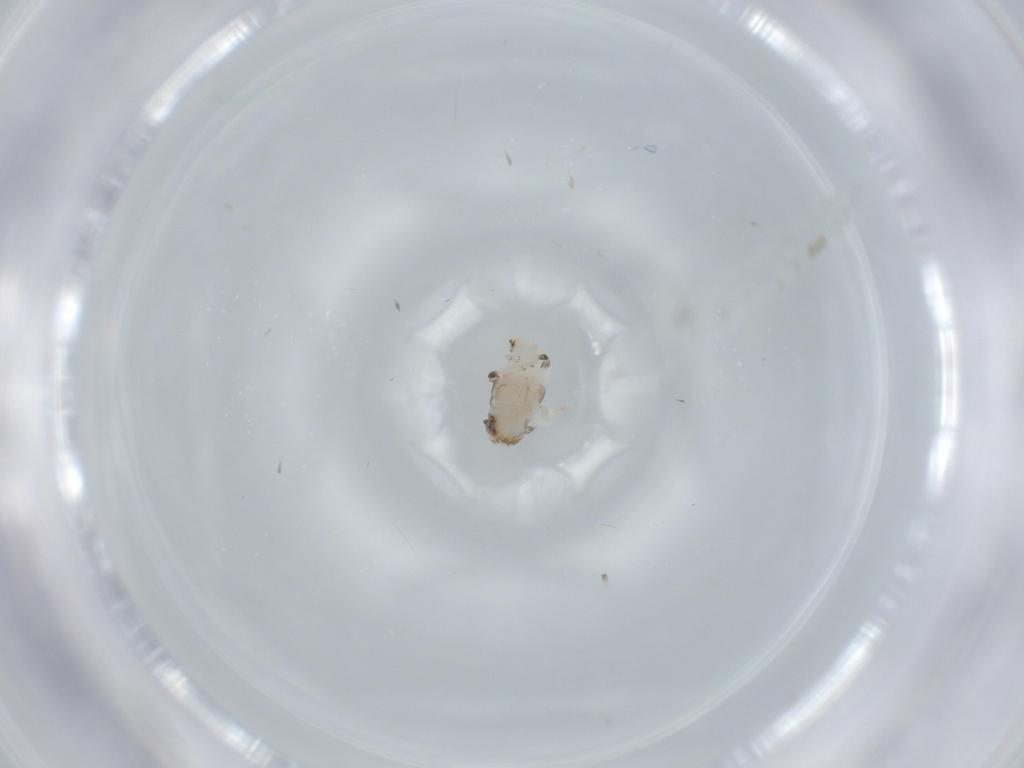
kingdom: Animalia
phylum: Arthropoda
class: Insecta
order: Hemiptera
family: Nogodinidae
